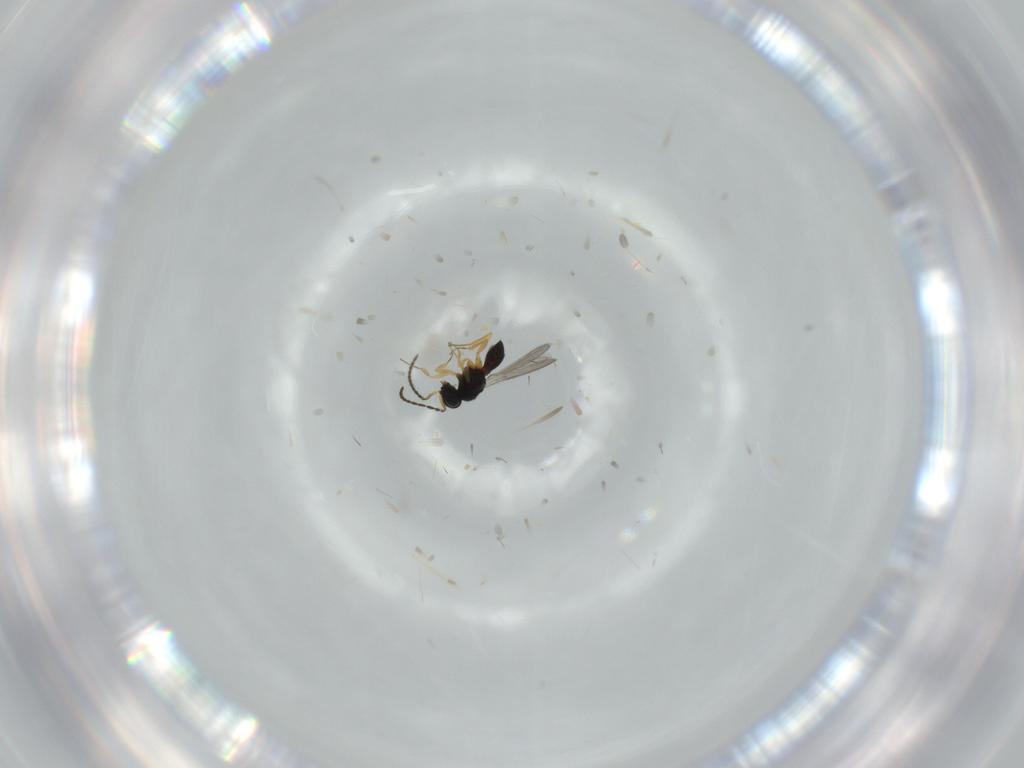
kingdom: Animalia
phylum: Arthropoda
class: Insecta
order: Hymenoptera
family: Scelionidae
